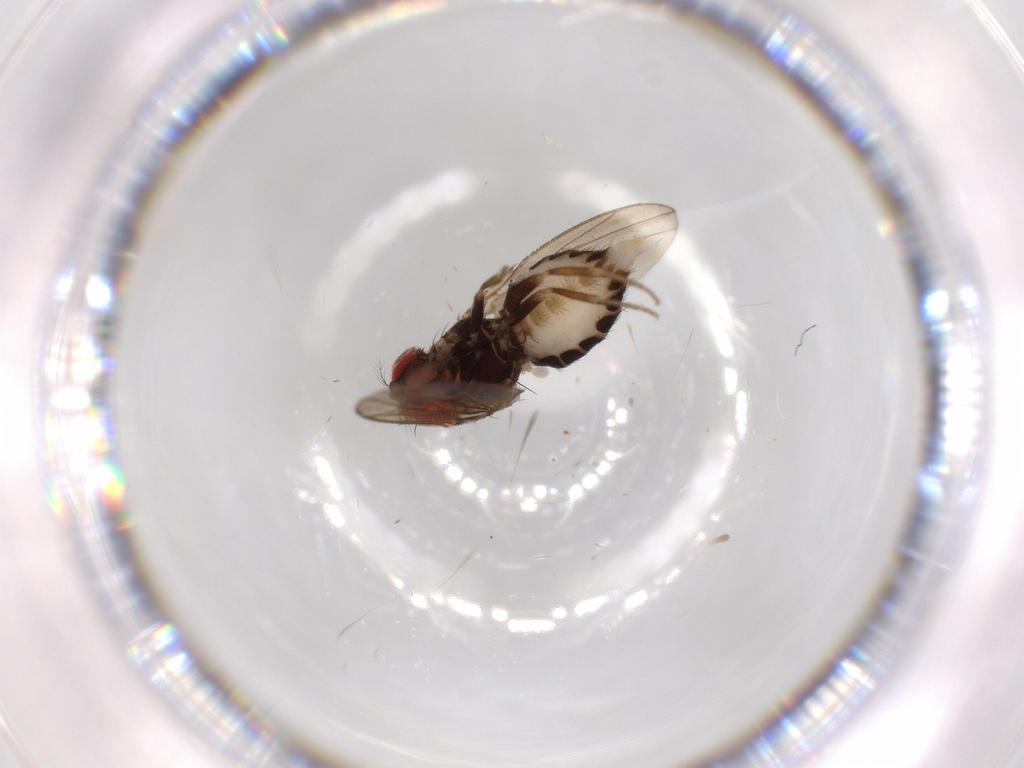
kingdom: Animalia
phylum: Arthropoda
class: Insecta
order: Diptera
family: Drosophilidae
